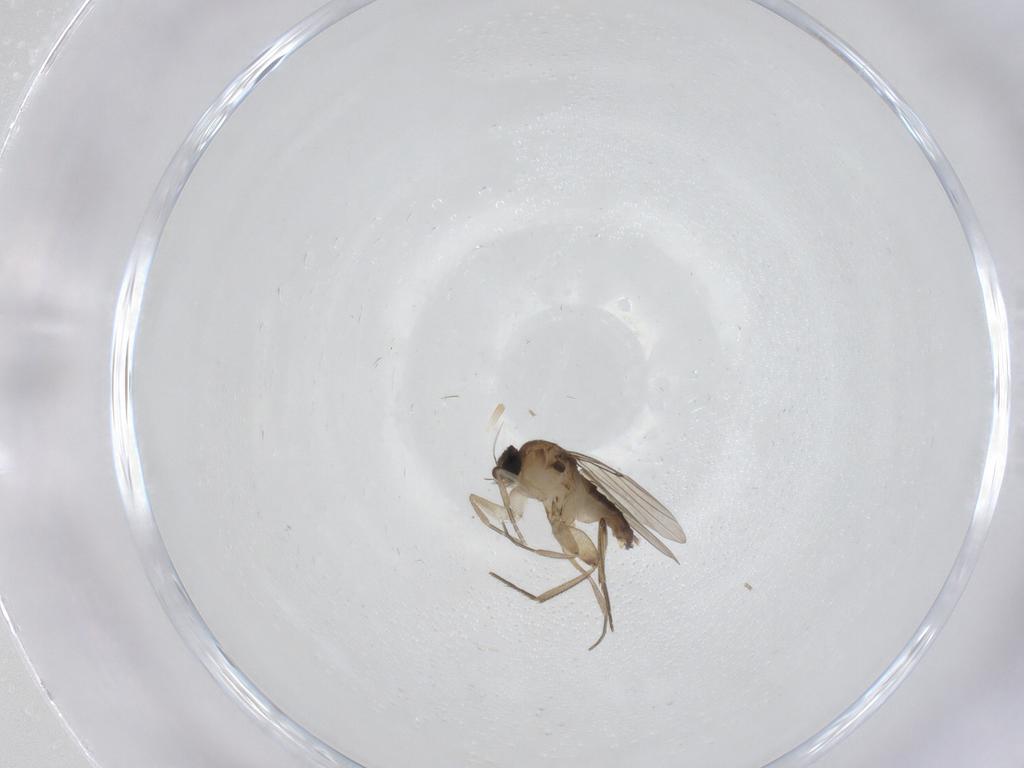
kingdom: Animalia
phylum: Arthropoda
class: Insecta
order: Diptera
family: Phoridae
